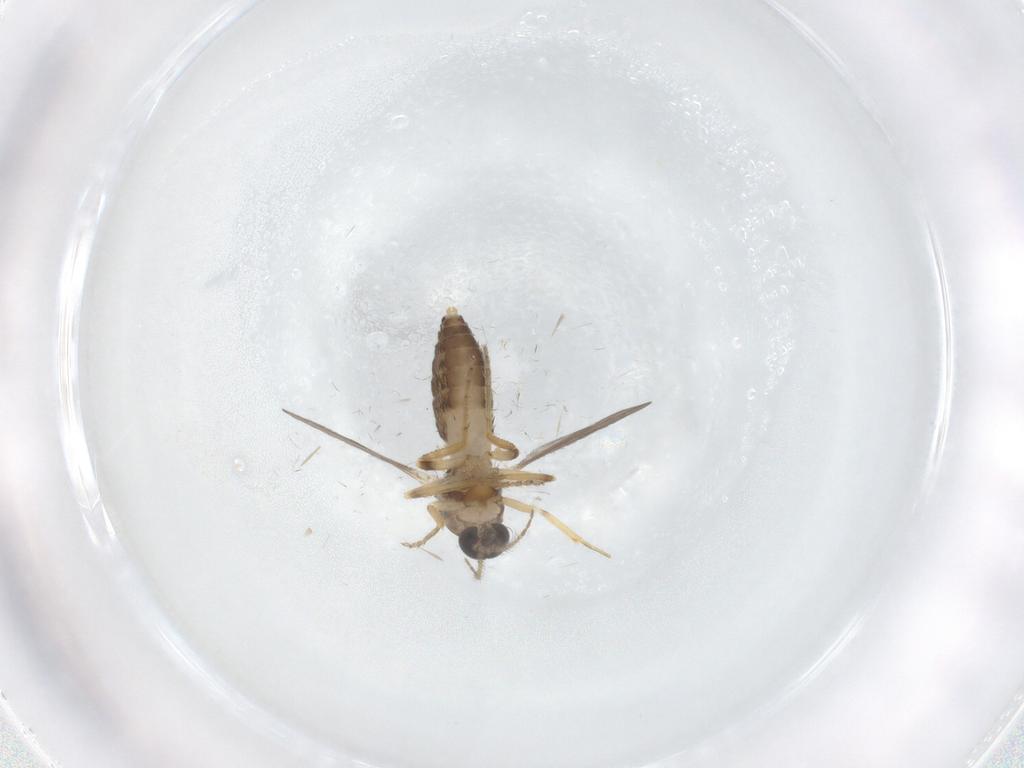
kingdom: Animalia
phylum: Arthropoda
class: Insecta
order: Diptera
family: Ceratopogonidae
